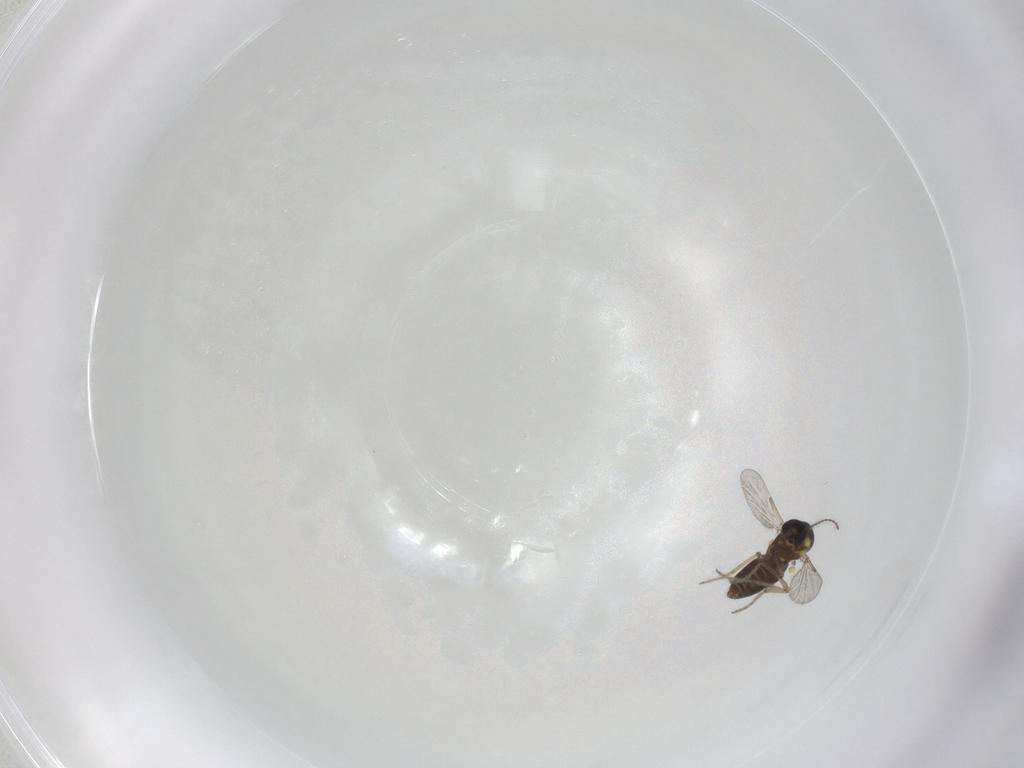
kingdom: Animalia
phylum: Arthropoda
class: Insecta
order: Diptera
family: Ceratopogonidae
